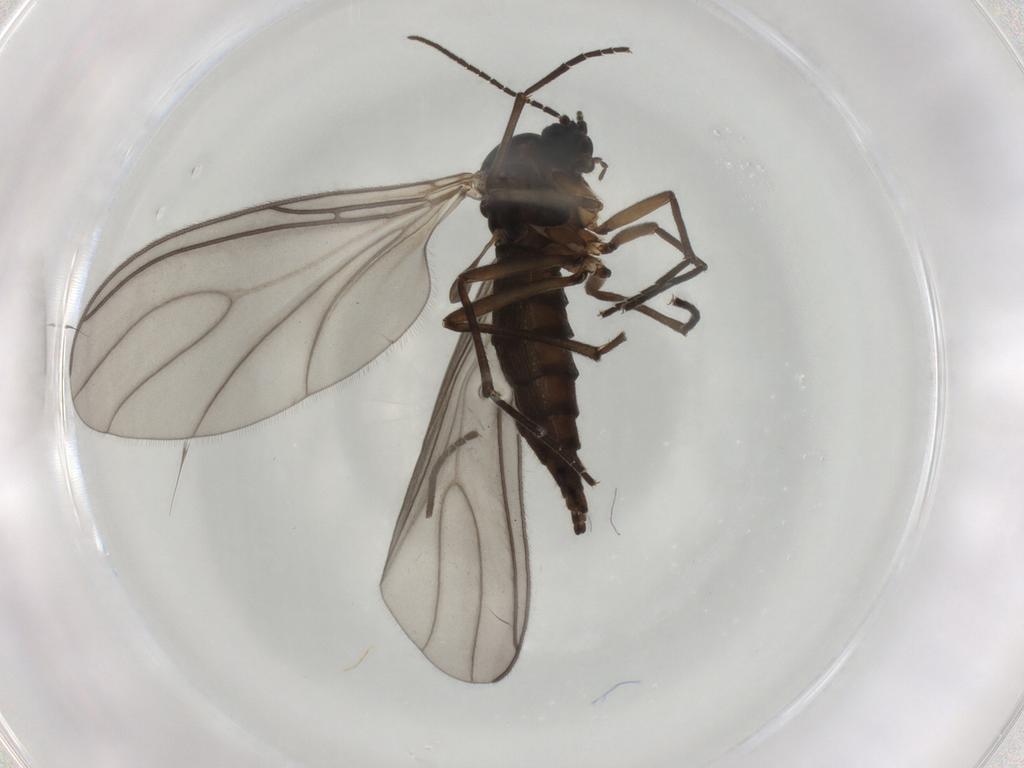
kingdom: Animalia
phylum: Arthropoda
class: Insecta
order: Diptera
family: Sciaridae
